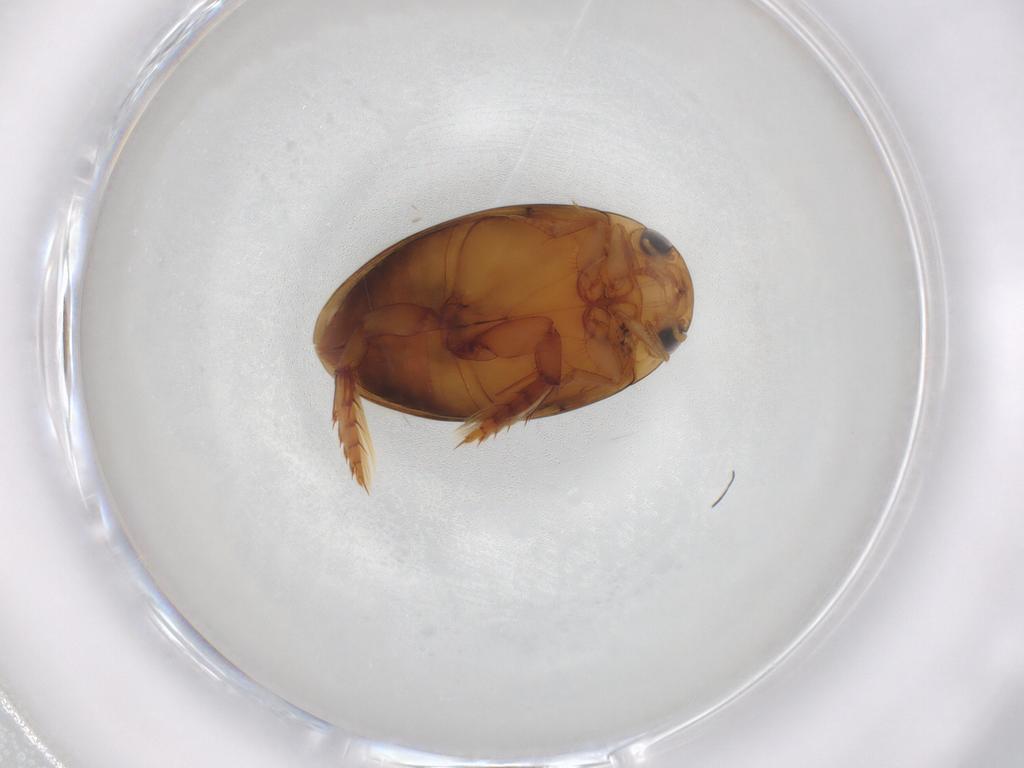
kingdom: Animalia
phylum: Arthropoda
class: Insecta
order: Coleoptera
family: Dytiscidae
